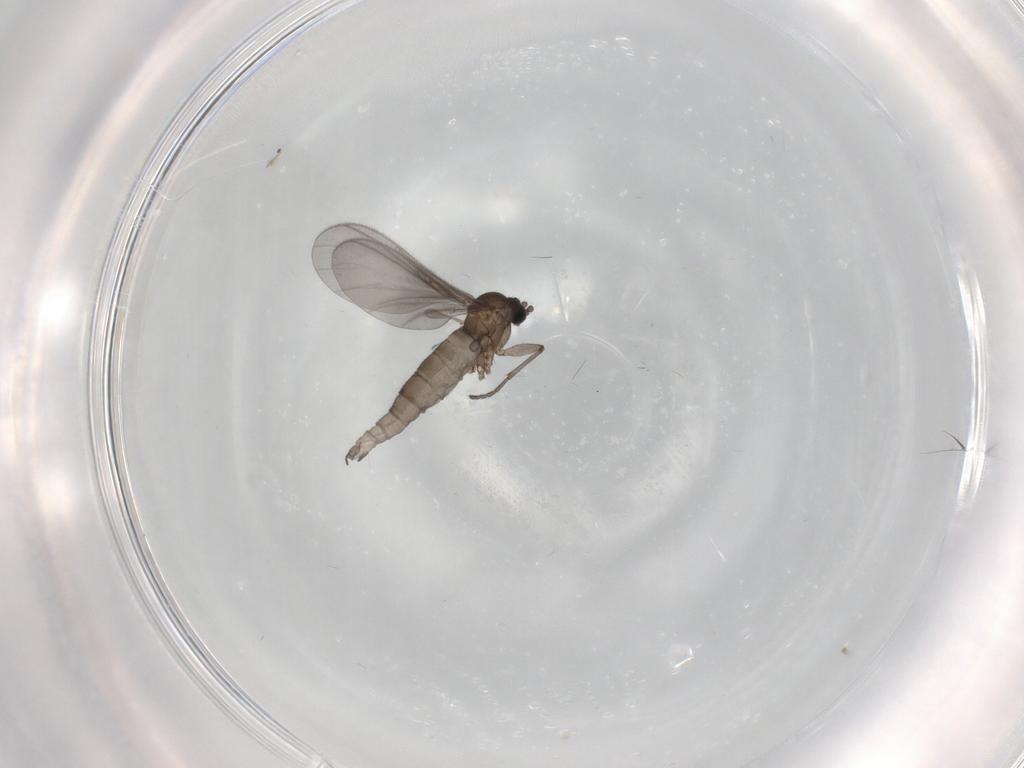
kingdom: Animalia
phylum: Arthropoda
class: Insecta
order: Diptera
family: Sciaridae
